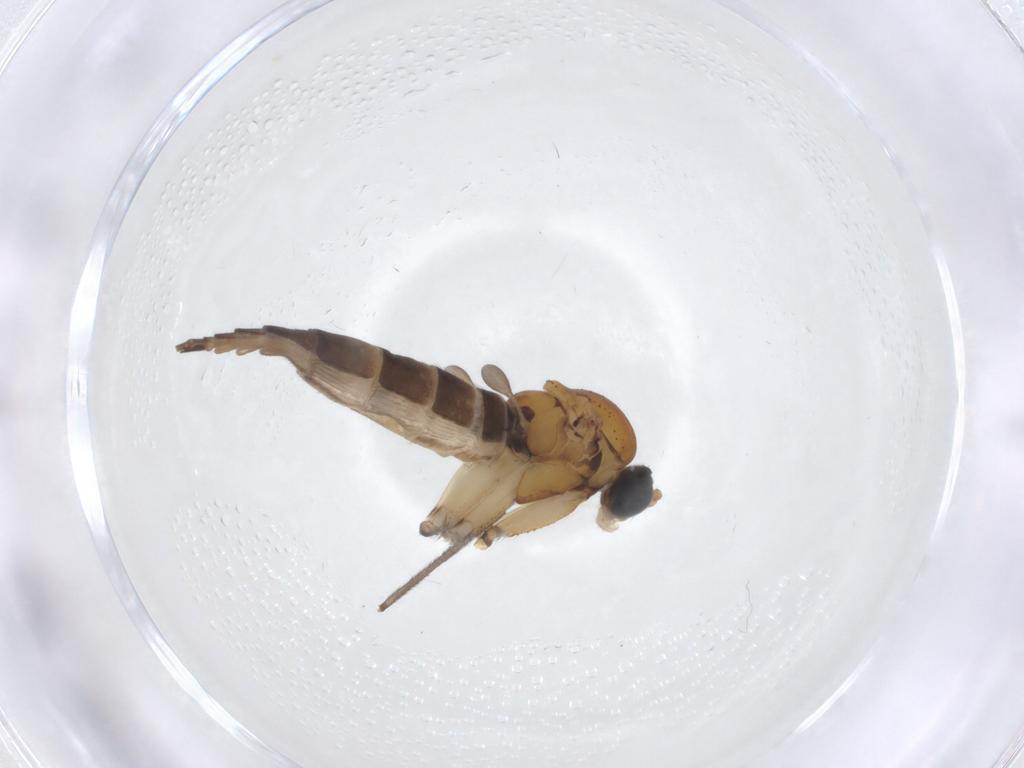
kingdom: Animalia
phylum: Arthropoda
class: Insecta
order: Diptera
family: Sciaridae
